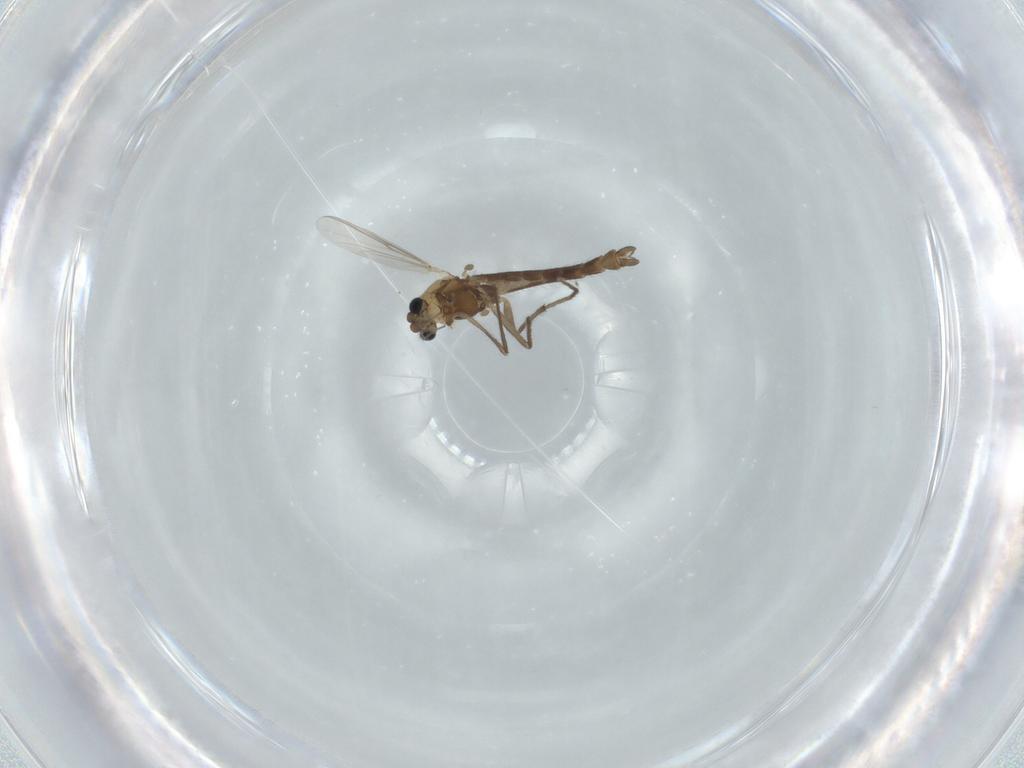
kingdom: Animalia
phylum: Arthropoda
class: Insecta
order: Diptera
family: Chironomidae
